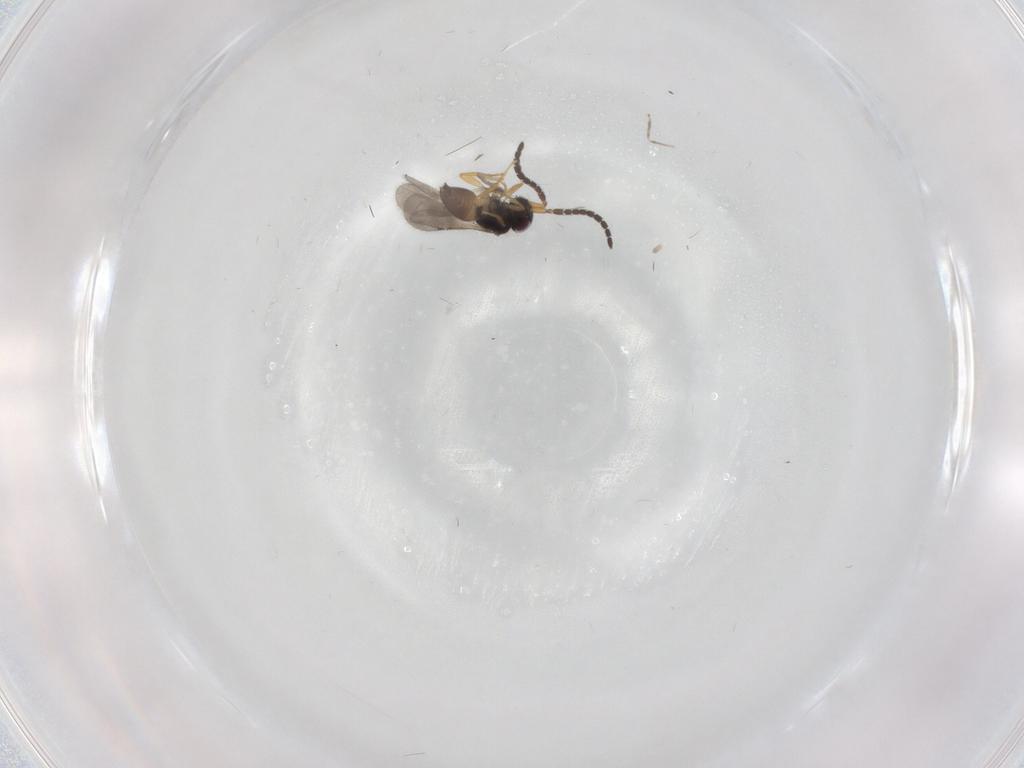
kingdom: Animalia
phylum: Arthropoda
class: Insecta
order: Hymenoptera
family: Ceraphronidae
